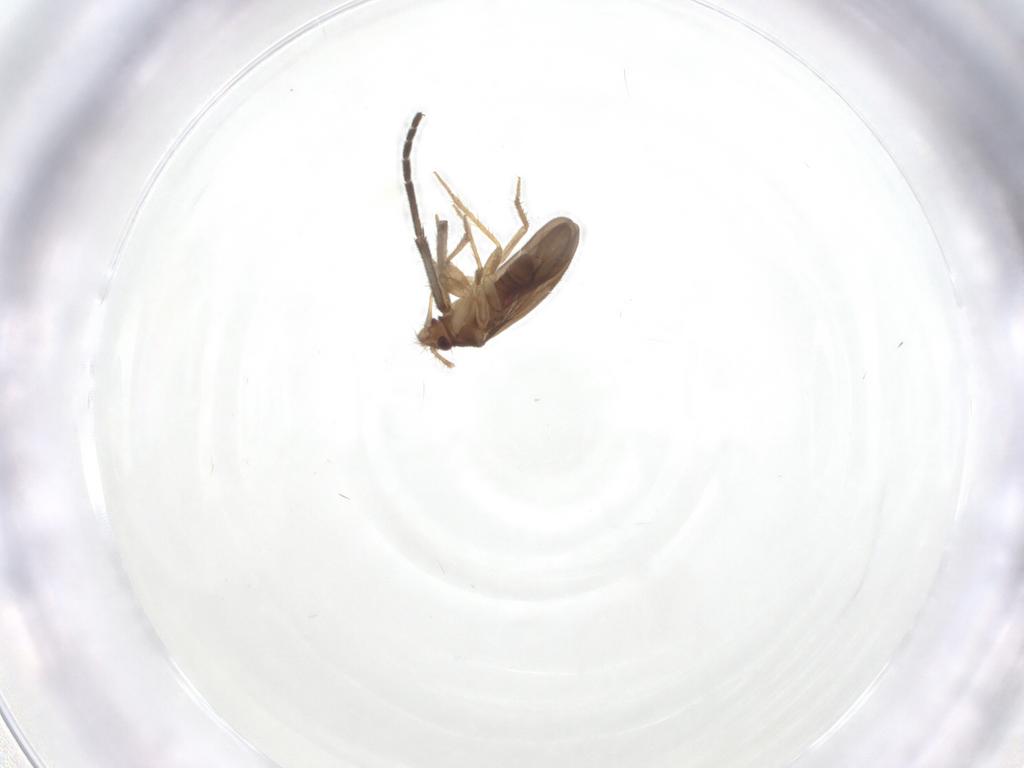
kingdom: Animalia
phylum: Arthropoda
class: Insecta
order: Hemiptera
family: Ceratocombidae
